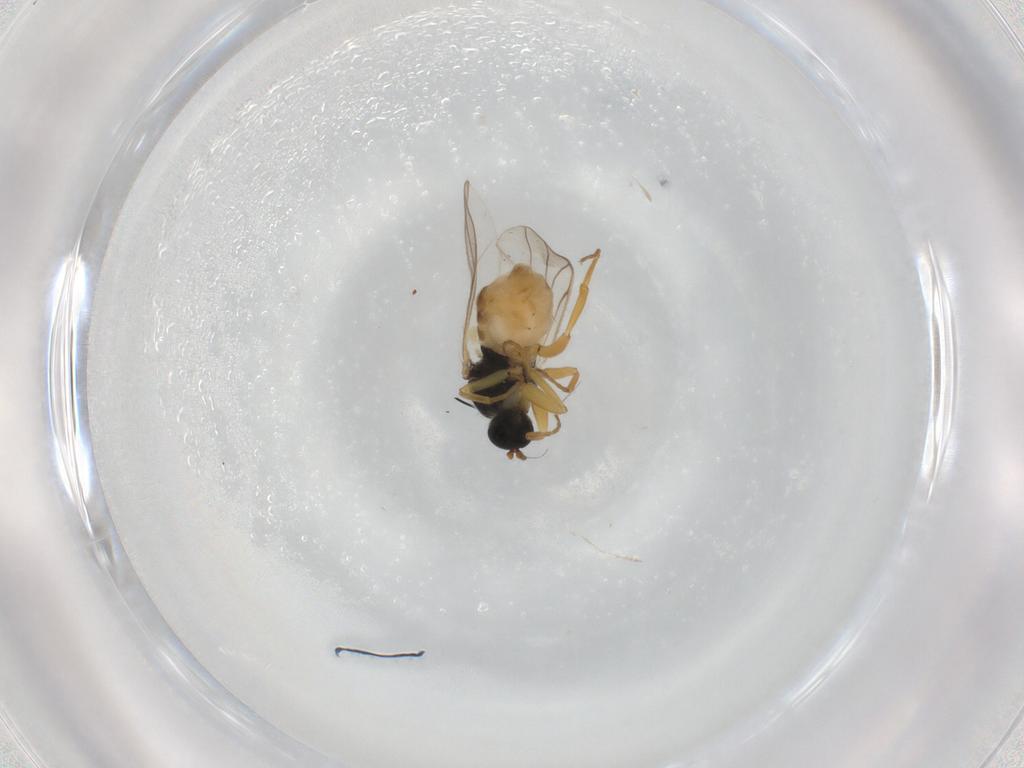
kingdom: Animalia
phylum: Arthropoda
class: Insecta
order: Diptera
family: Hybotidae
